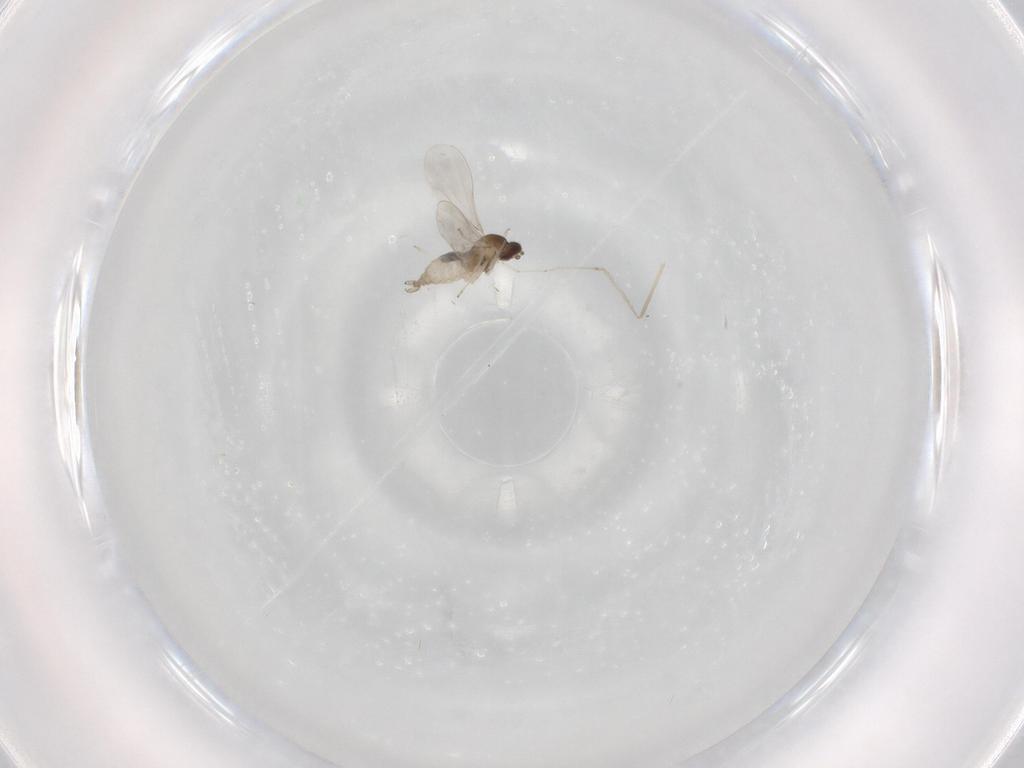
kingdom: Animalia
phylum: Arthropoda
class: Insecta
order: Diptera
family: Cecidomyiidae
